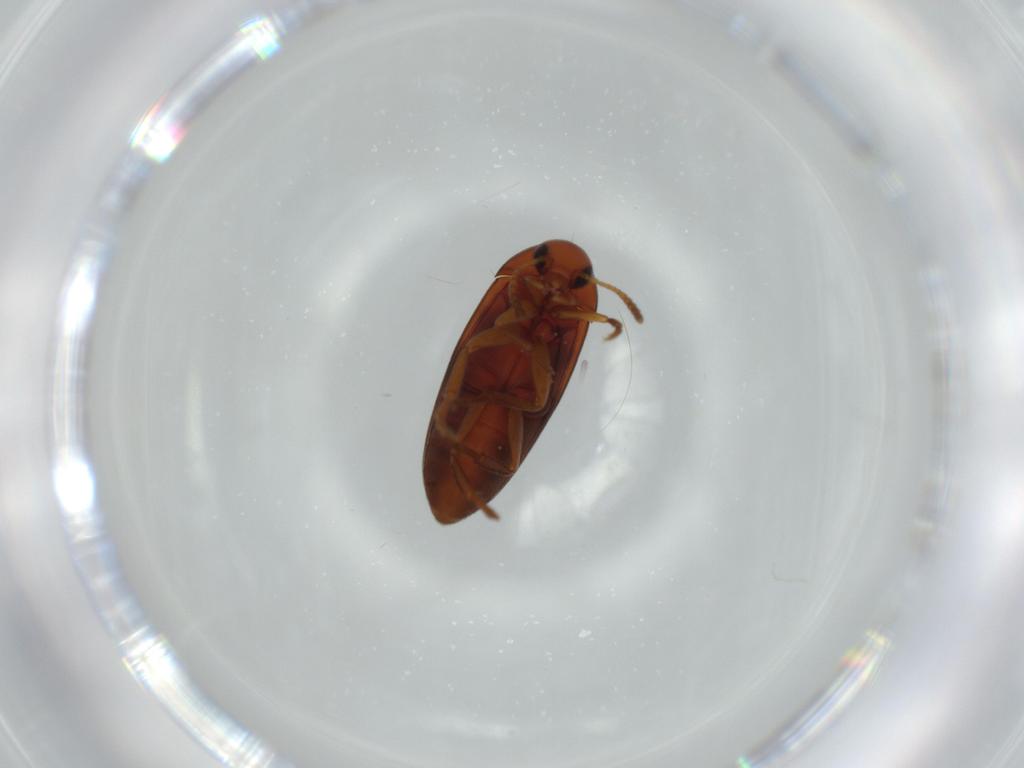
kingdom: Animalia
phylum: Arthropoda
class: Insecta
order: Coleoptera
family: Scraptiidae
